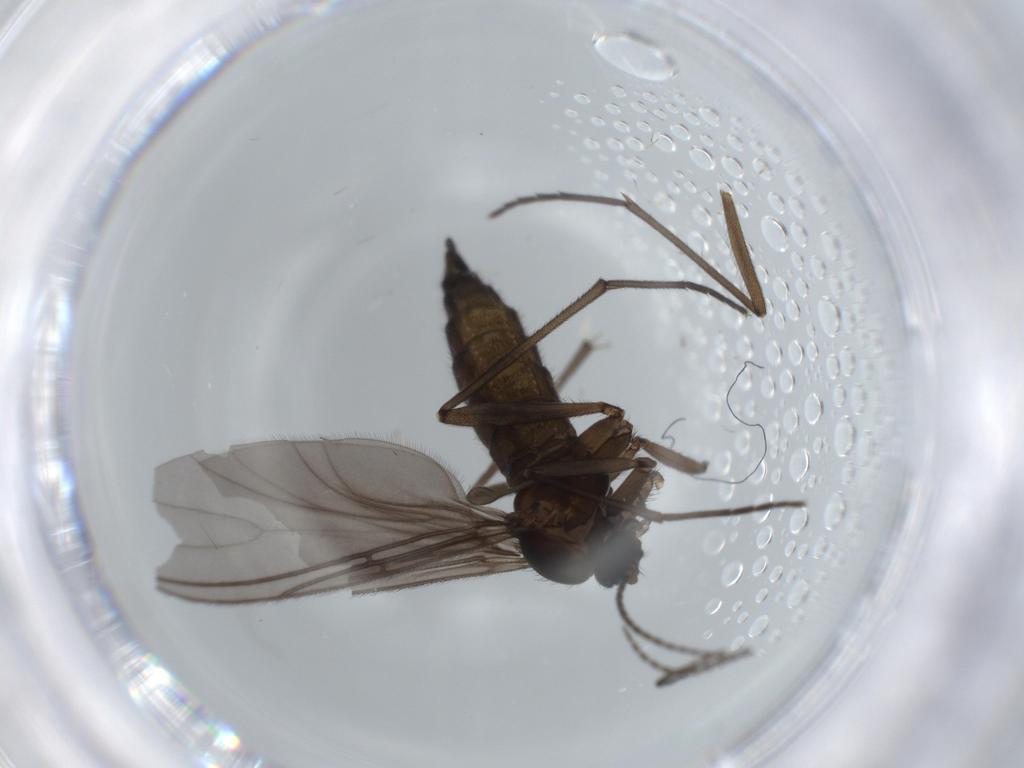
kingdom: Animalia
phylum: Arthropoda
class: Insecta
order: Diptera
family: Sciaridae
